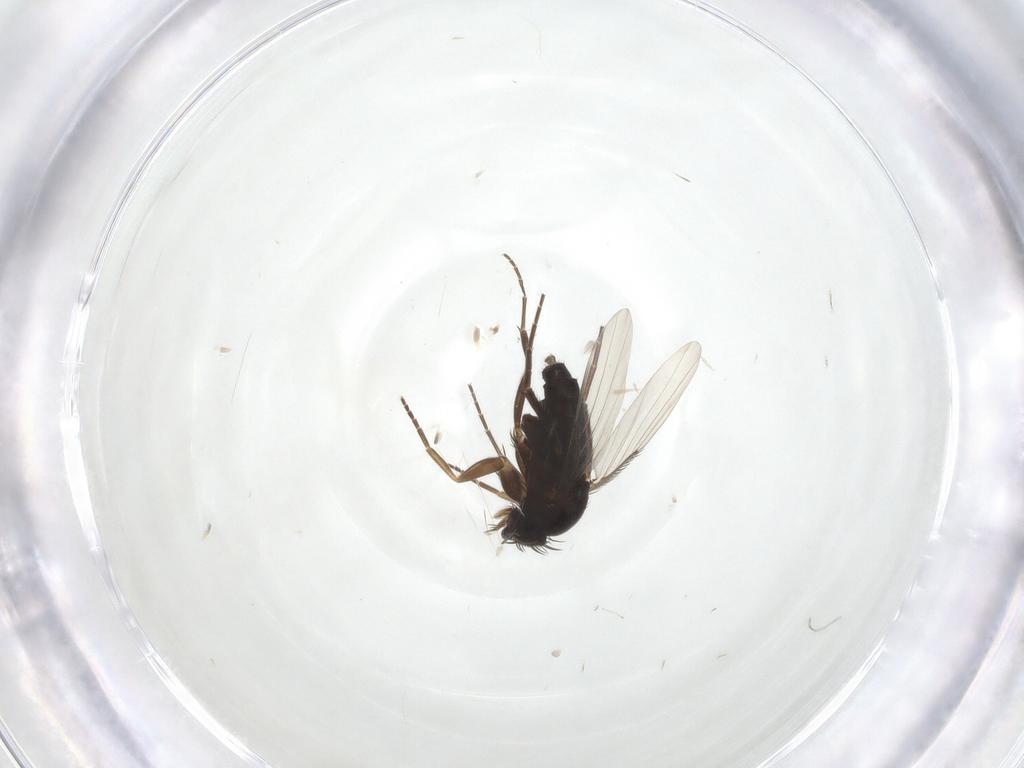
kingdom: Animalia
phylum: Arthropoda
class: Insecta
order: Diptera
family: Phoridae
